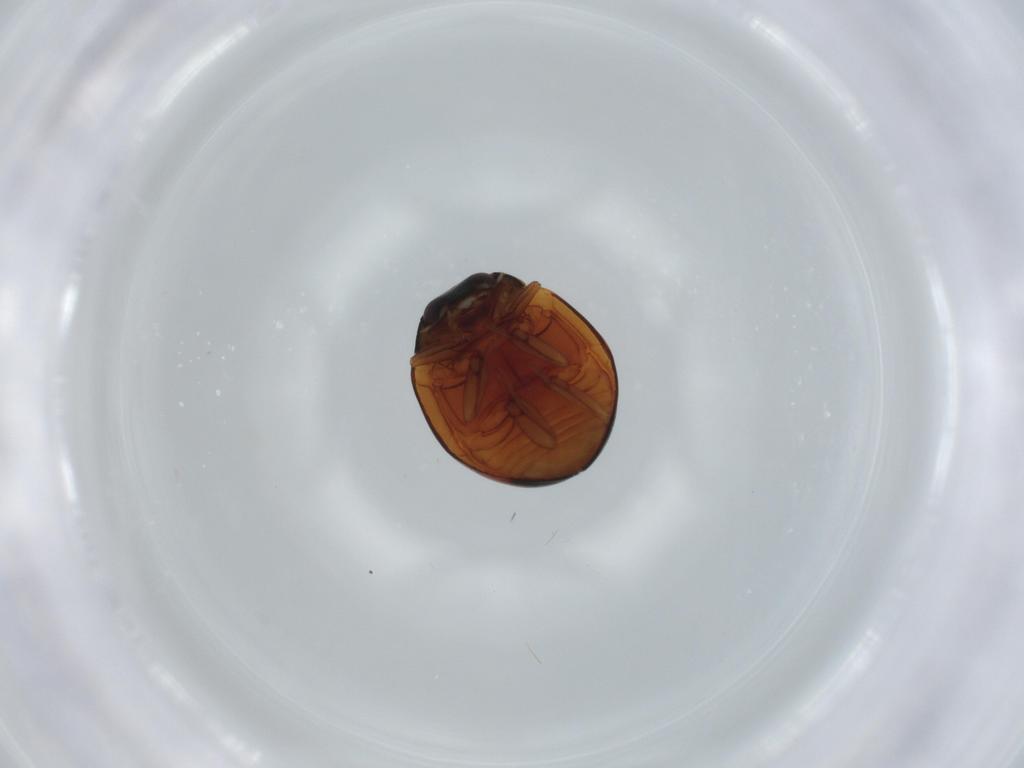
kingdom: Animalia
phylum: Arthropoda
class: Insecta
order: Coleoptera
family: Coccinellidae
